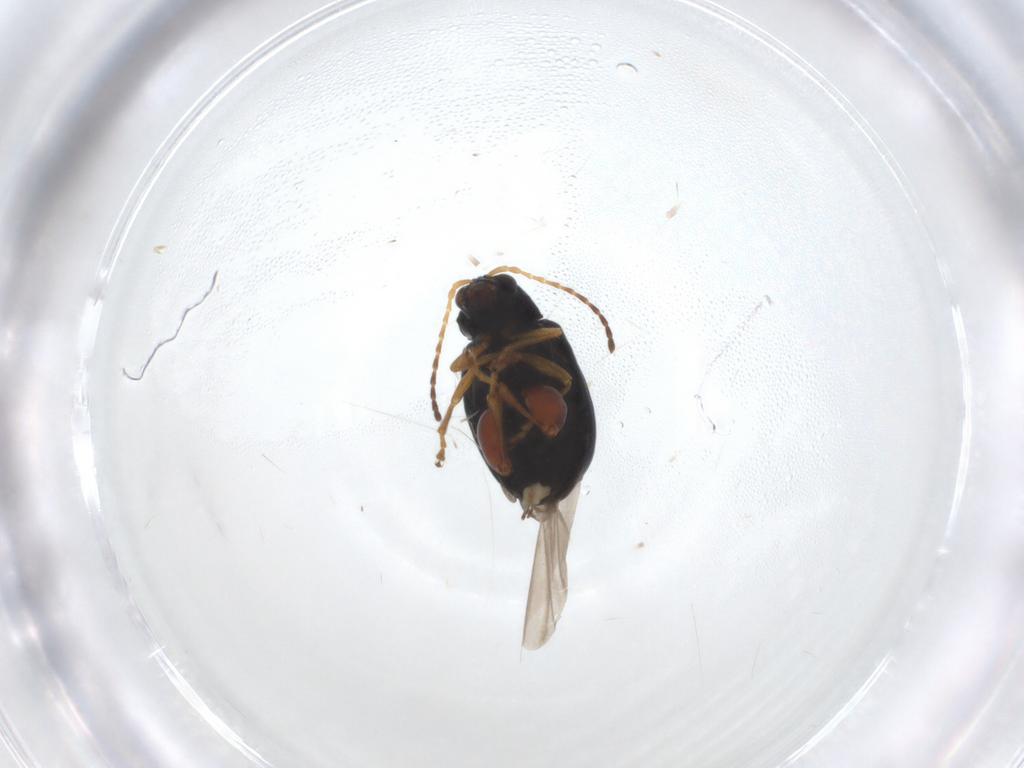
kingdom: Animalia
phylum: Arthropoda
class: Insecta
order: Coleoptera
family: Chrysomelidae
